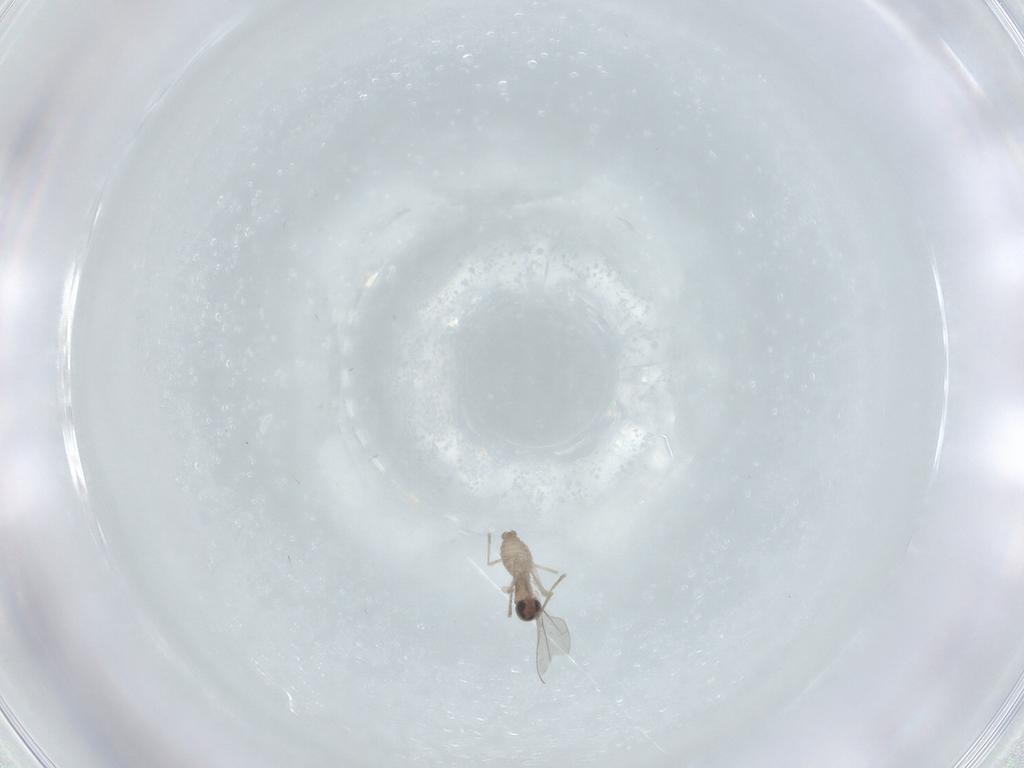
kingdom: Animalia
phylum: Arthropoda
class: Insecta
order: Diptera
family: Cecidomyiidae
